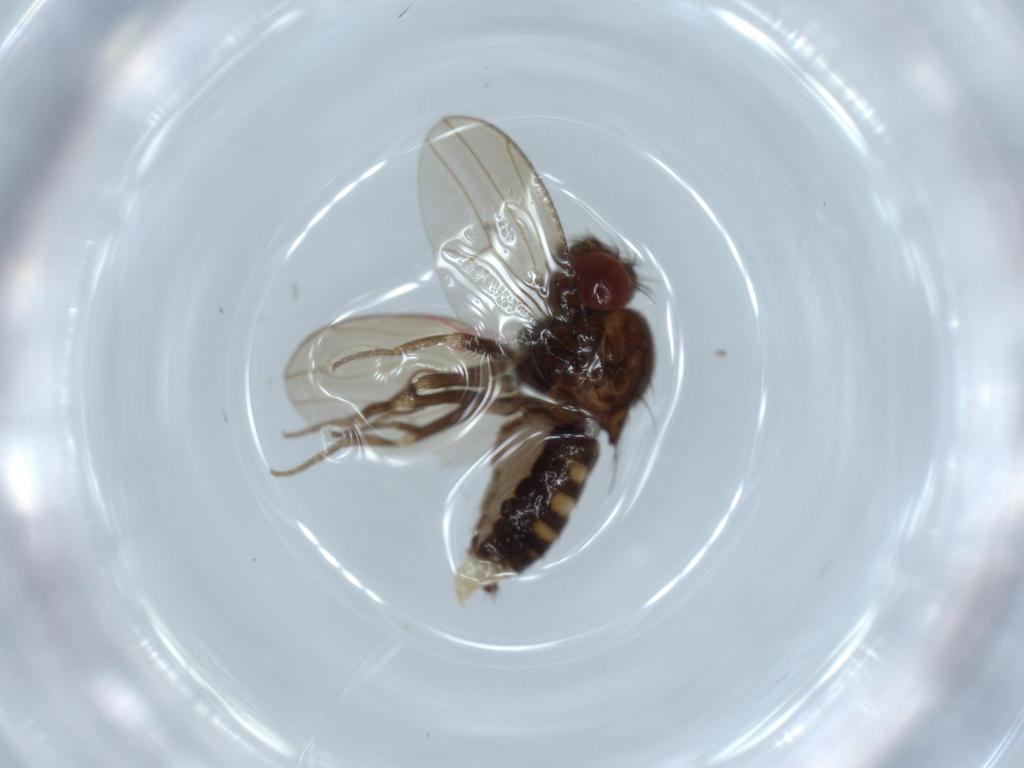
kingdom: Animalia
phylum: Arthropoda
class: Insecta
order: Diptera
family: Drosophilidae
